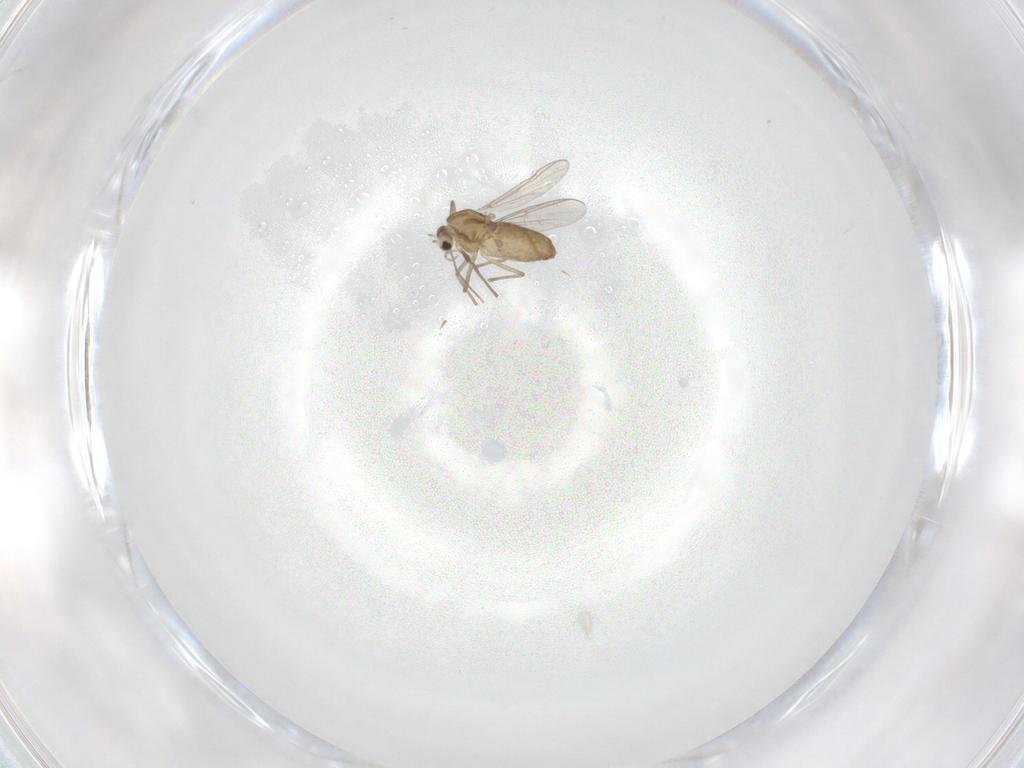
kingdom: Animalia
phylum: Arthropoda
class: Insecta
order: Diptera
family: Chironomidae
